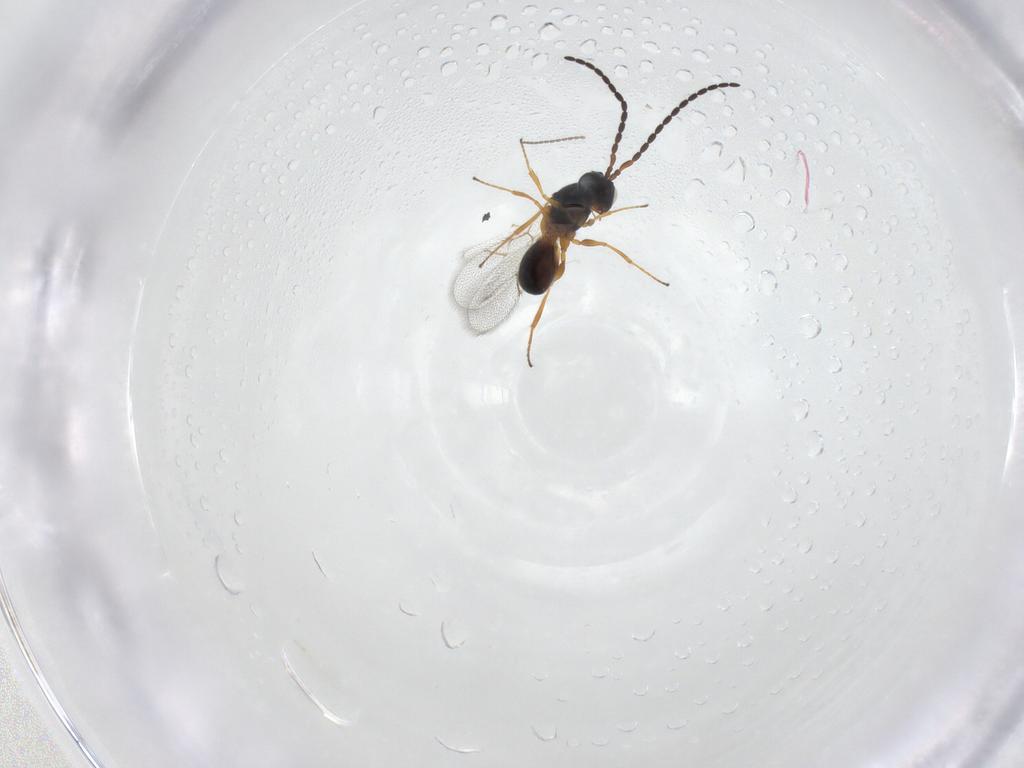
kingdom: Animalia
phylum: Arthropoda
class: Insecta
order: Hymenoptera
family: Figitidae
